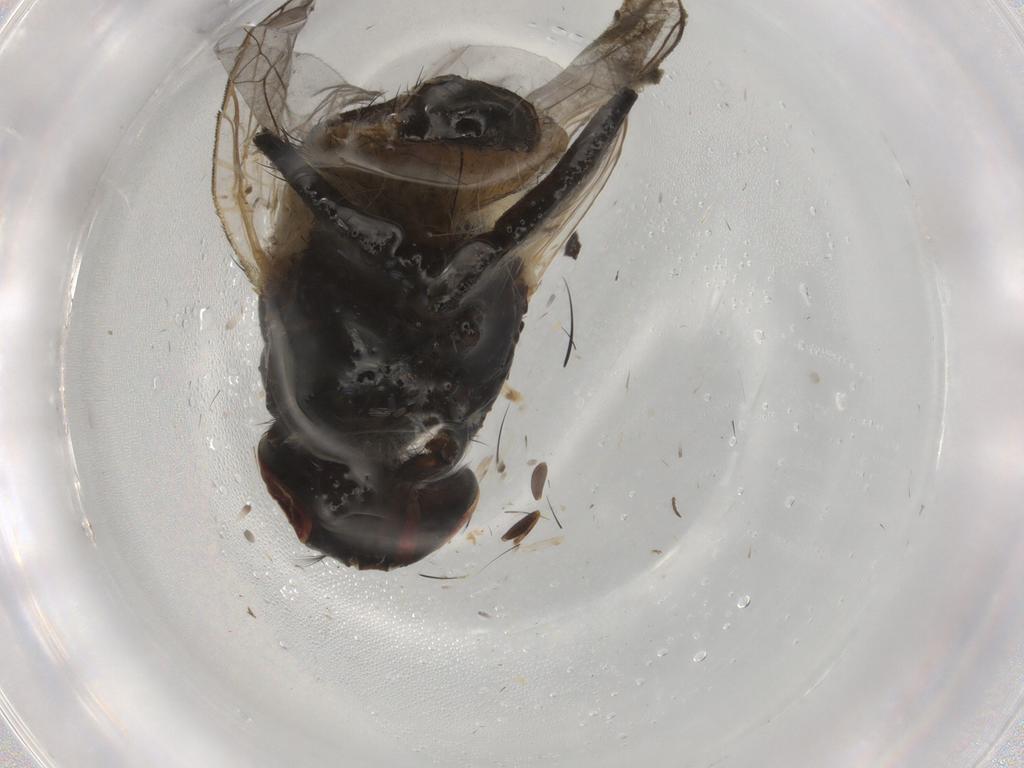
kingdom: Animalia
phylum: Arthropoda
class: Insecta
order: Diptera
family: Muscidae
